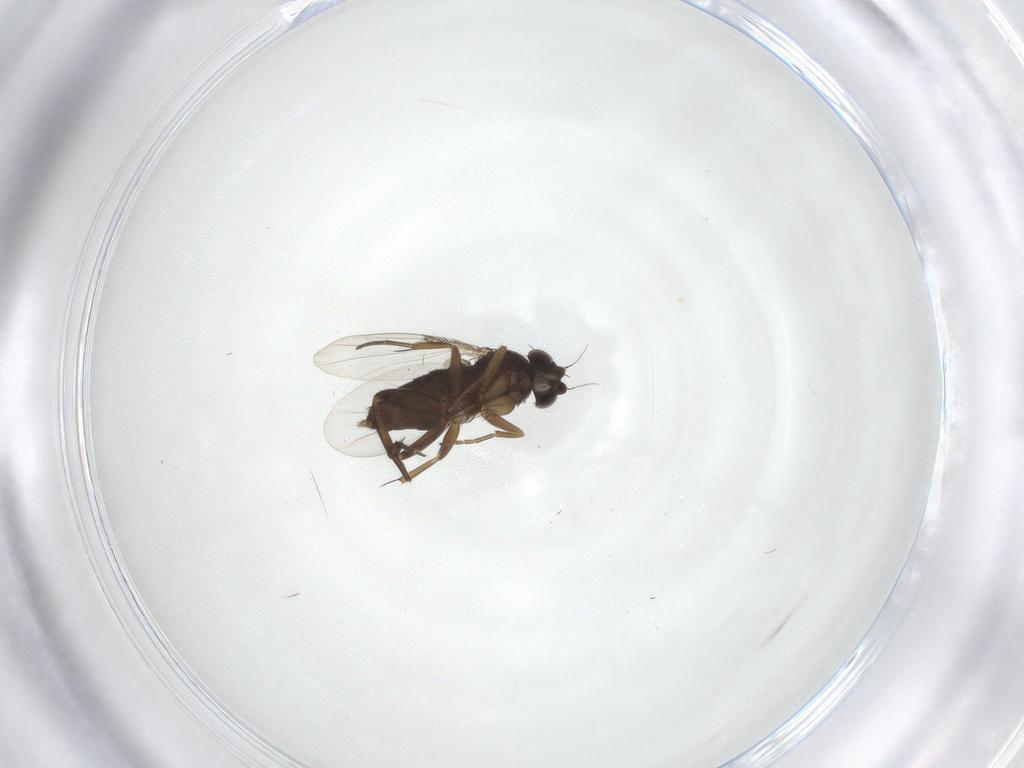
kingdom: Animalia
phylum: Arthropoda
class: Insecta
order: Diptera
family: Phoridae
